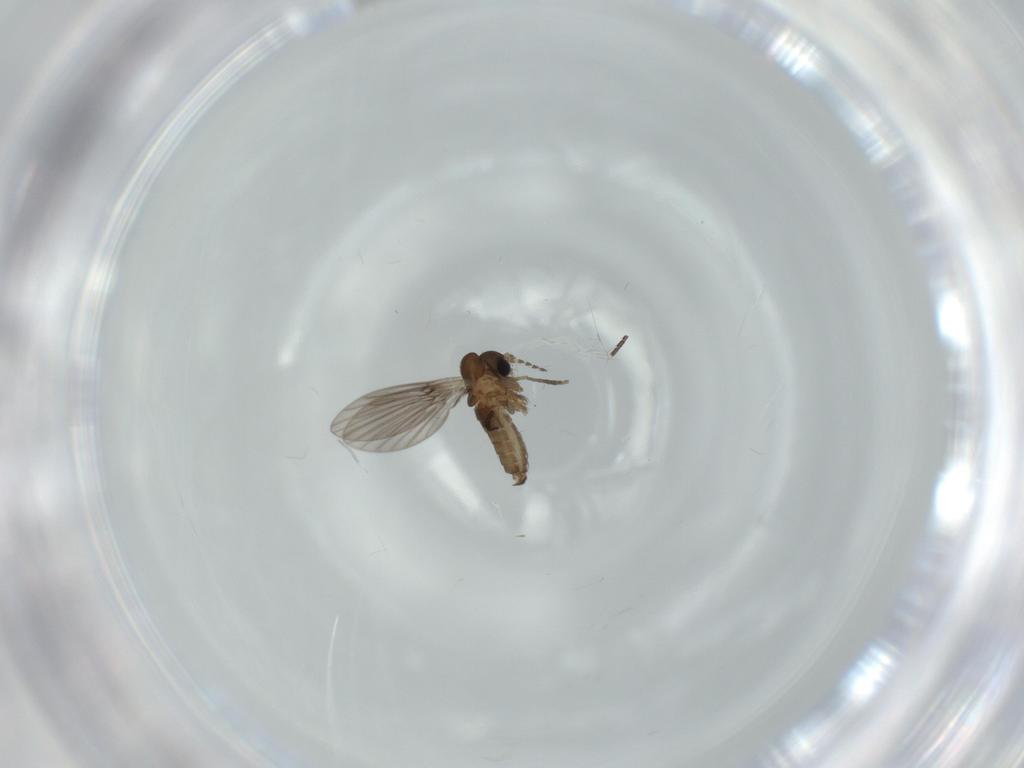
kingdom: Animalia
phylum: Arthropoda
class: Insecta
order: Diptera
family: Psychodidae
